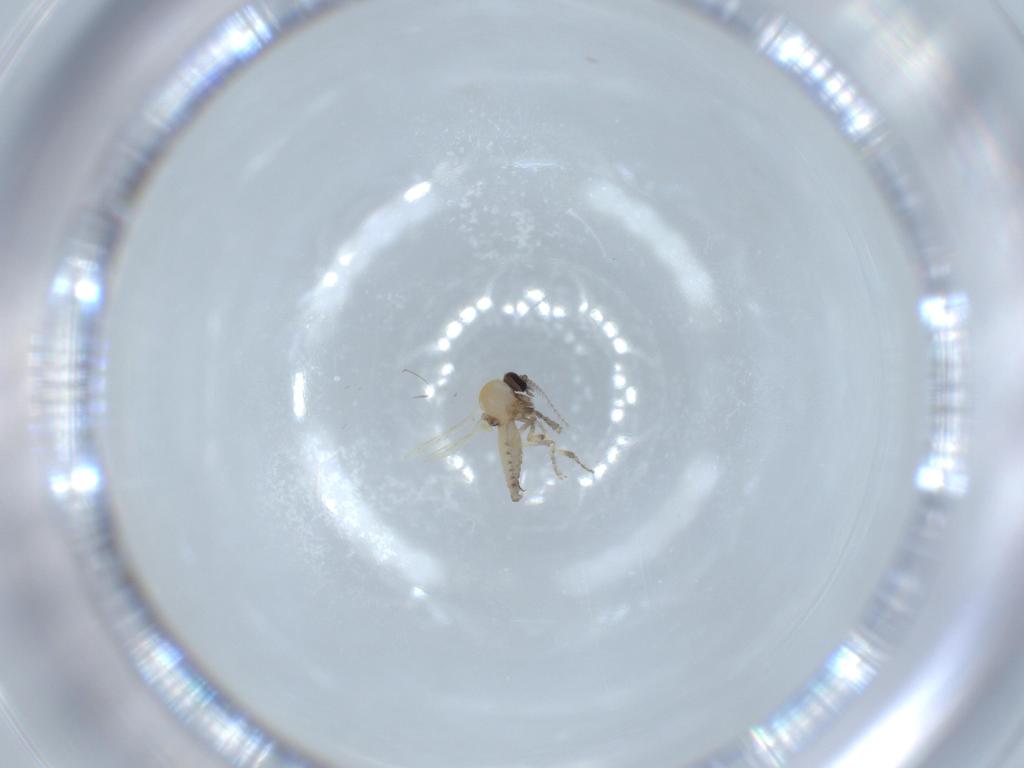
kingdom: Animalia
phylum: Arthropoda
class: Insecta
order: Diptera
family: Ceratopogonidae
